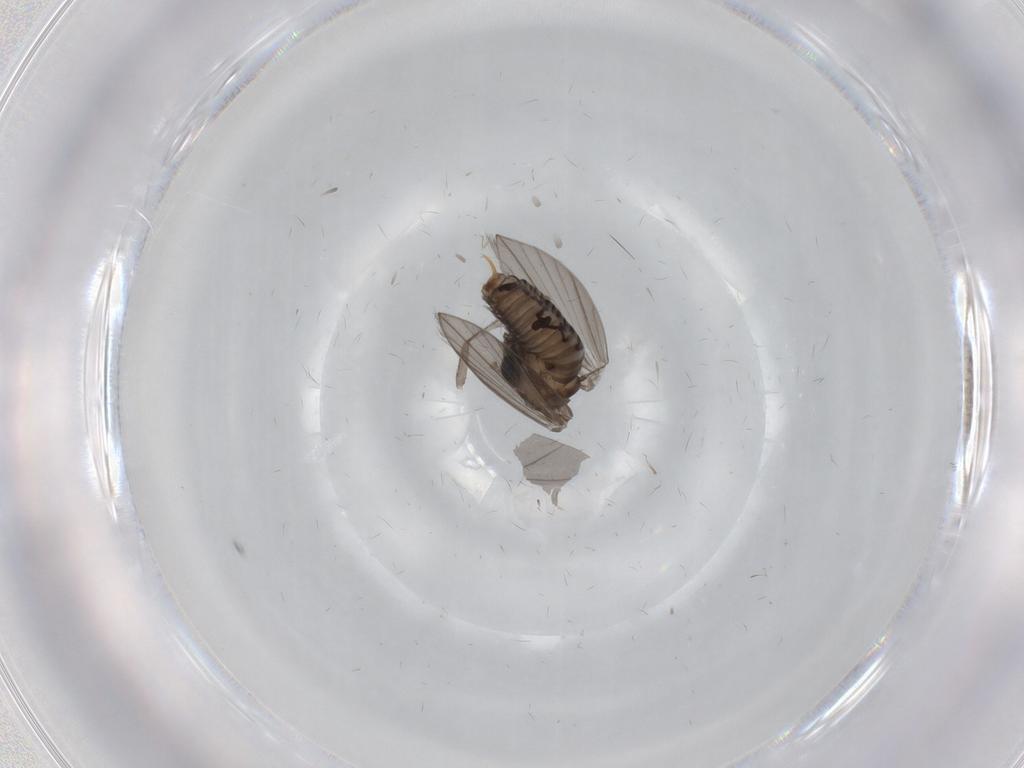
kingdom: Animalia
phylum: Arthropoda
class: Insecta
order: Diptera
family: Psychodidae
